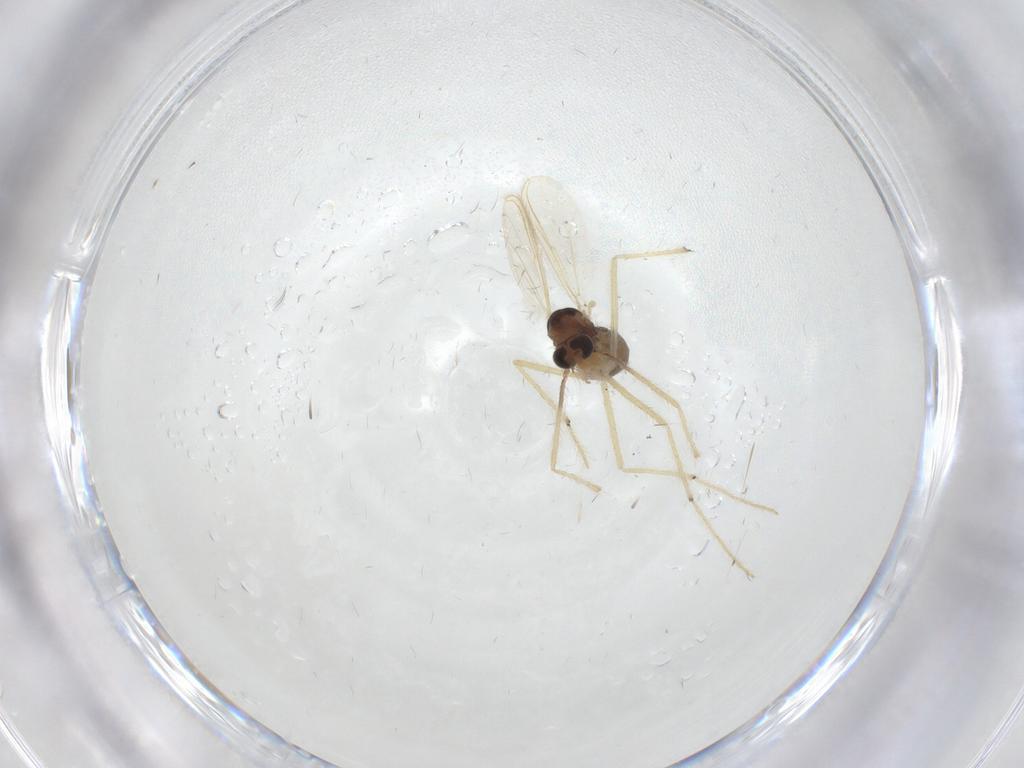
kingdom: Animalia
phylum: Arthropoda
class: Insecta
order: Diptera
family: Chironomidae
